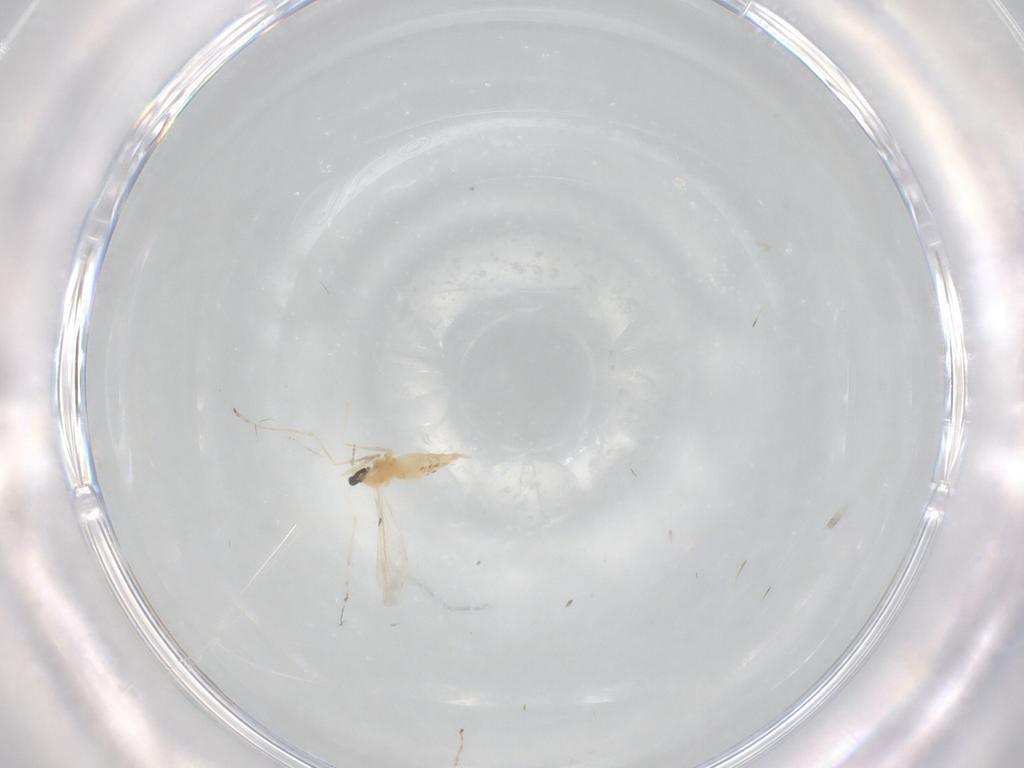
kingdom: Animalia
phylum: Arthropoda
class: Insecta
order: Diptera
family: Cecidomyiidae
